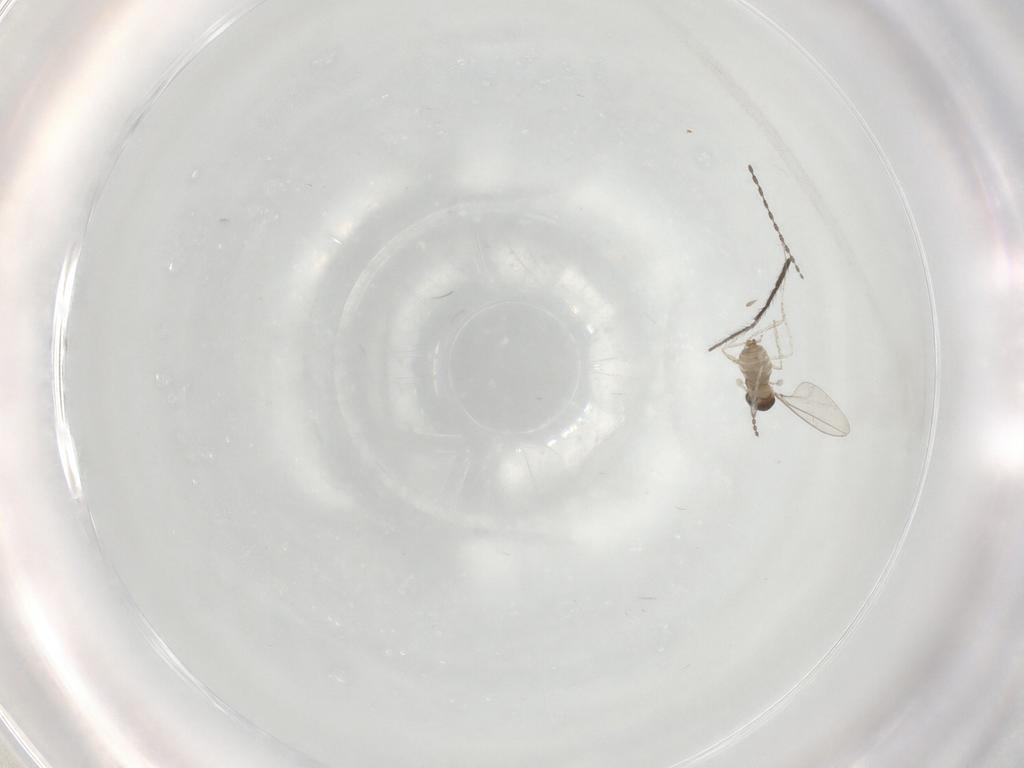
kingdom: Animalia
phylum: Arthropoda
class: Insecta
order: Diptera
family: Cecidomyiidae
